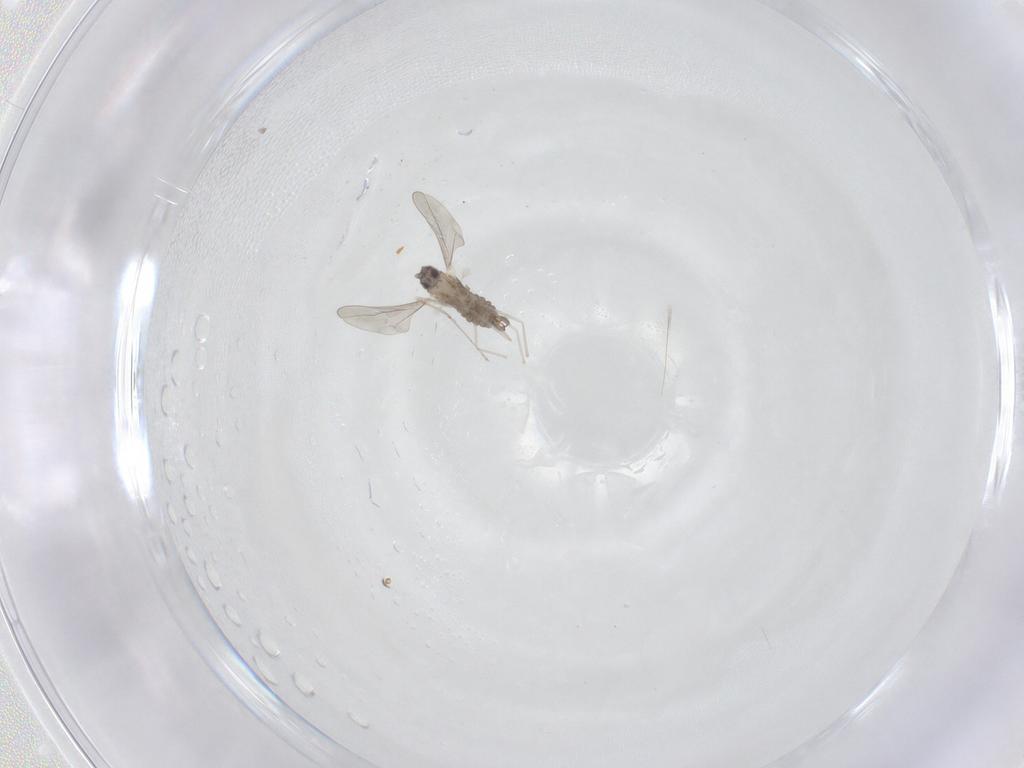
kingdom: Animalia
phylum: Arthropoda
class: Insecta
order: Diptera
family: Cecidomyiidae
